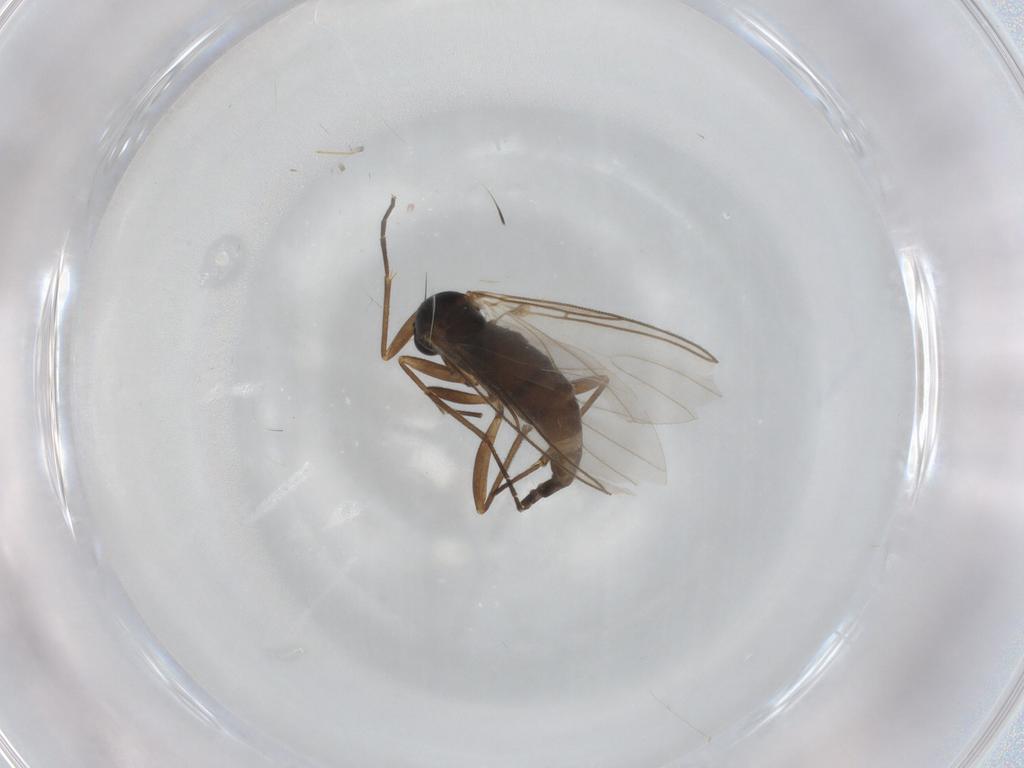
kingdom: Animalia
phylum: Arthropoda
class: Insecta
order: Diptera
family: Sciaridae
